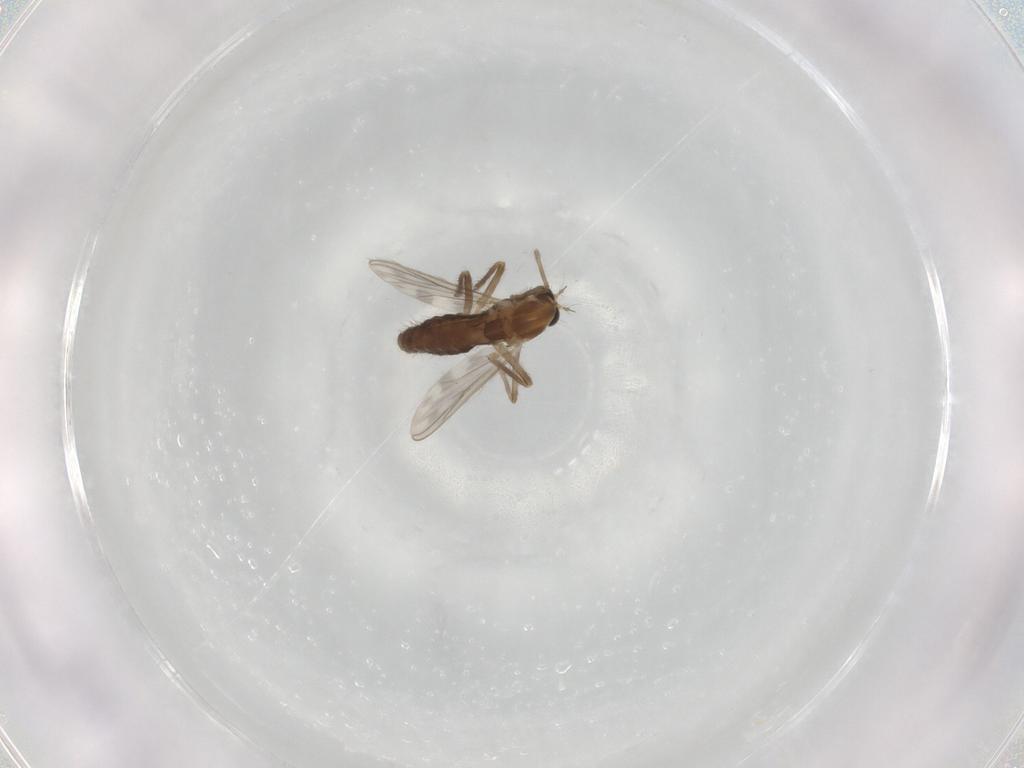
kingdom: Animalia
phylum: Arthropoda
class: Insecta
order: Diptera
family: Chironomidae
